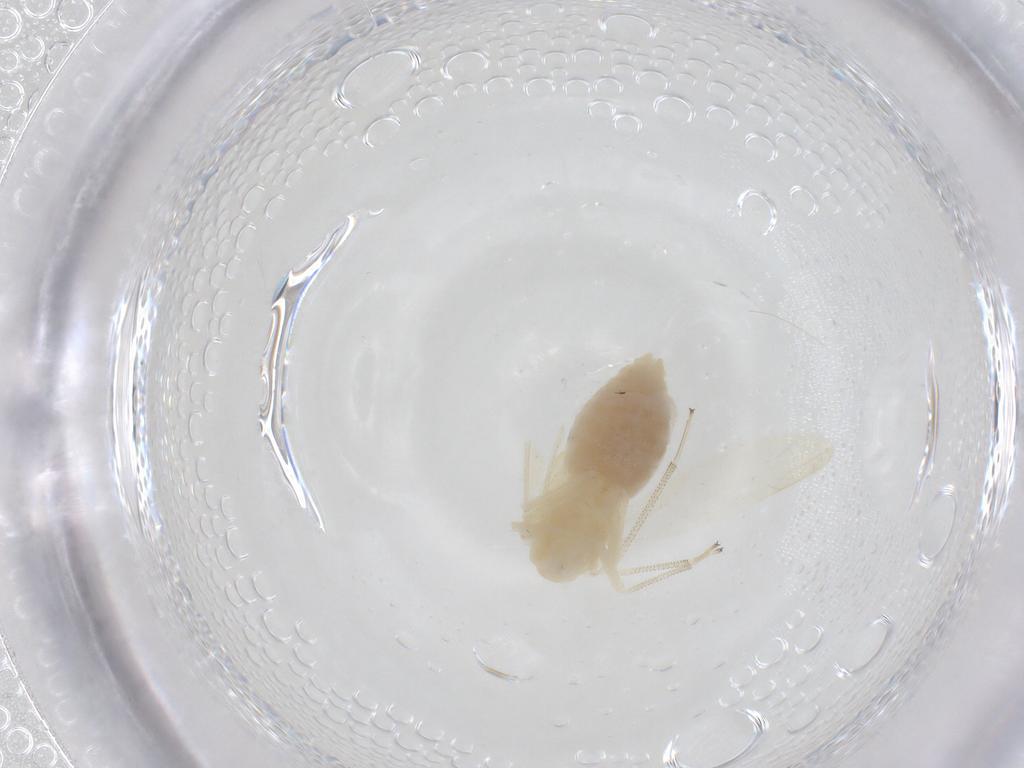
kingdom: Animalia
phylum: Arthropoda
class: Insecta
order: Psocodea
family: Caeciliusidae
